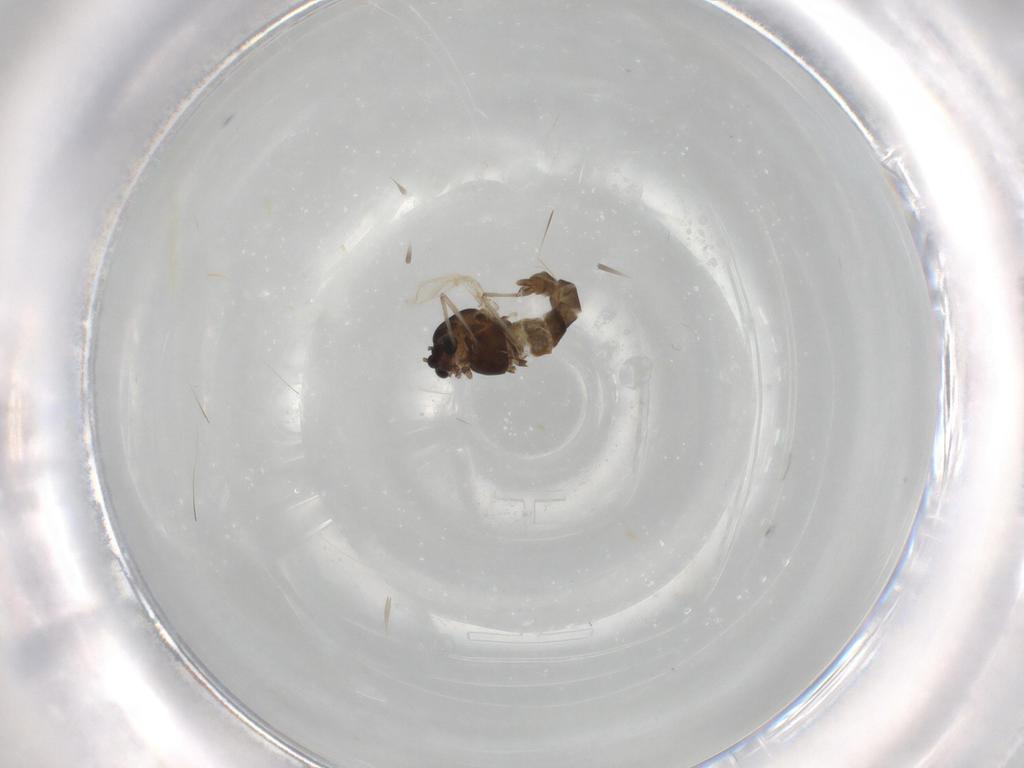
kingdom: Animalia
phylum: Arthropoda
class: Insecta
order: Diptera
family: Chironomidae
